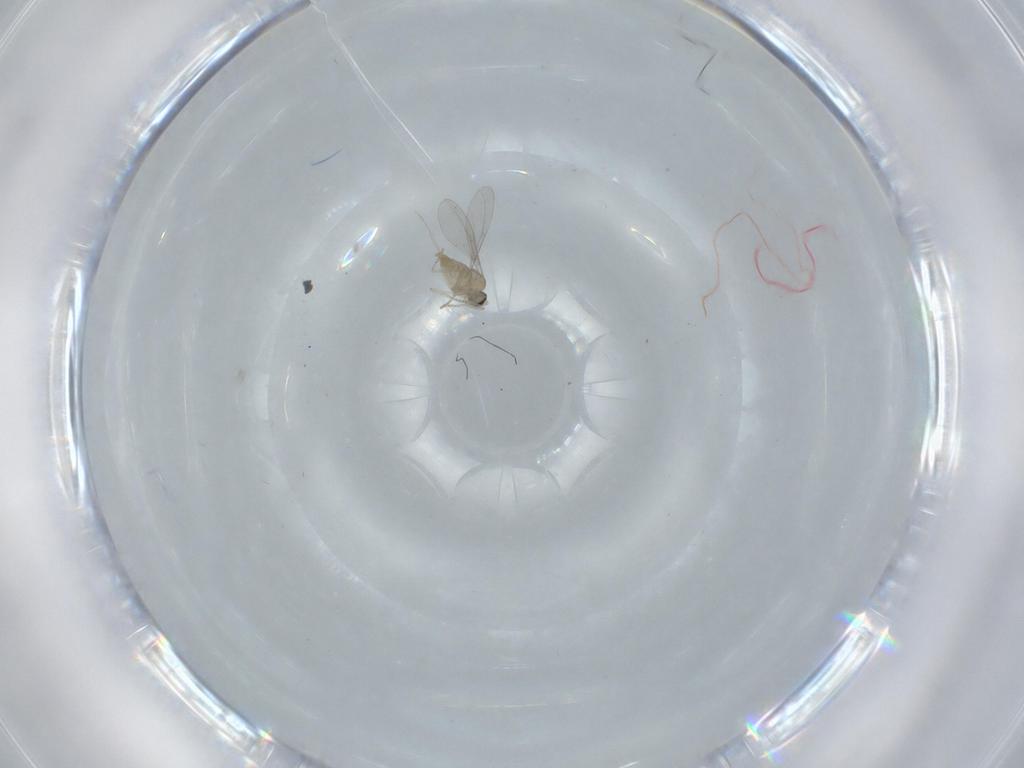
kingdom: Animalia
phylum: Arthropoda
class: Insecta
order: Diptera
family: Cecidomyiidae
